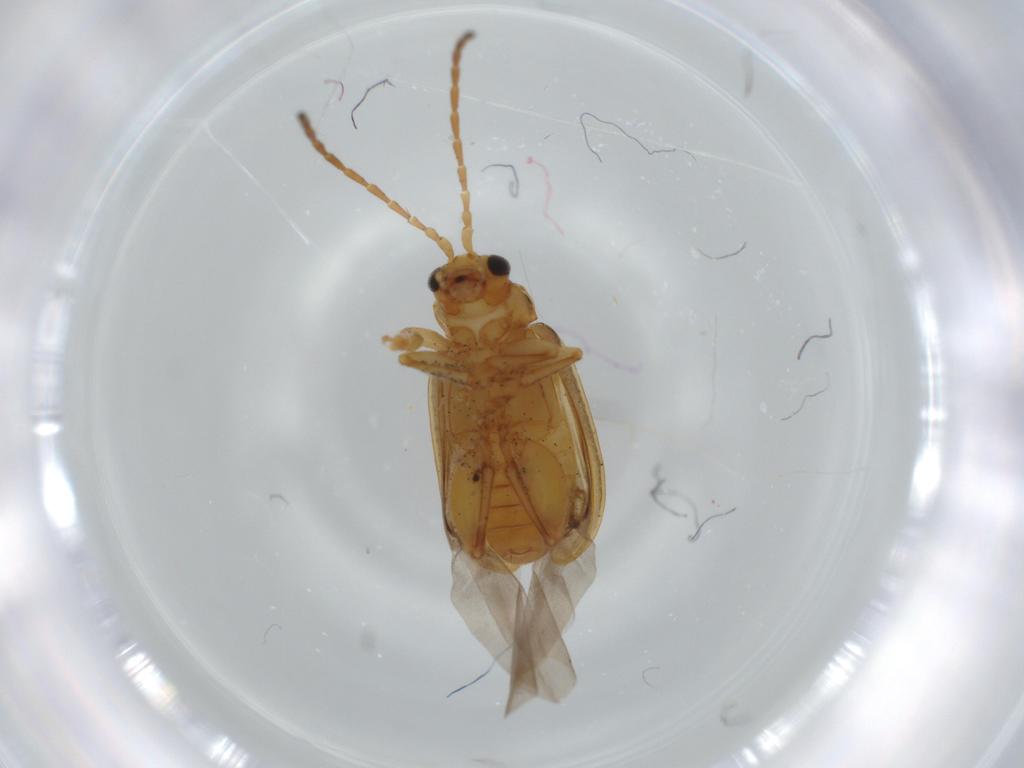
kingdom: Animalia
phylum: Arthropoda
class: Insecta
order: Coleoptera
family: Chrysomelidae
